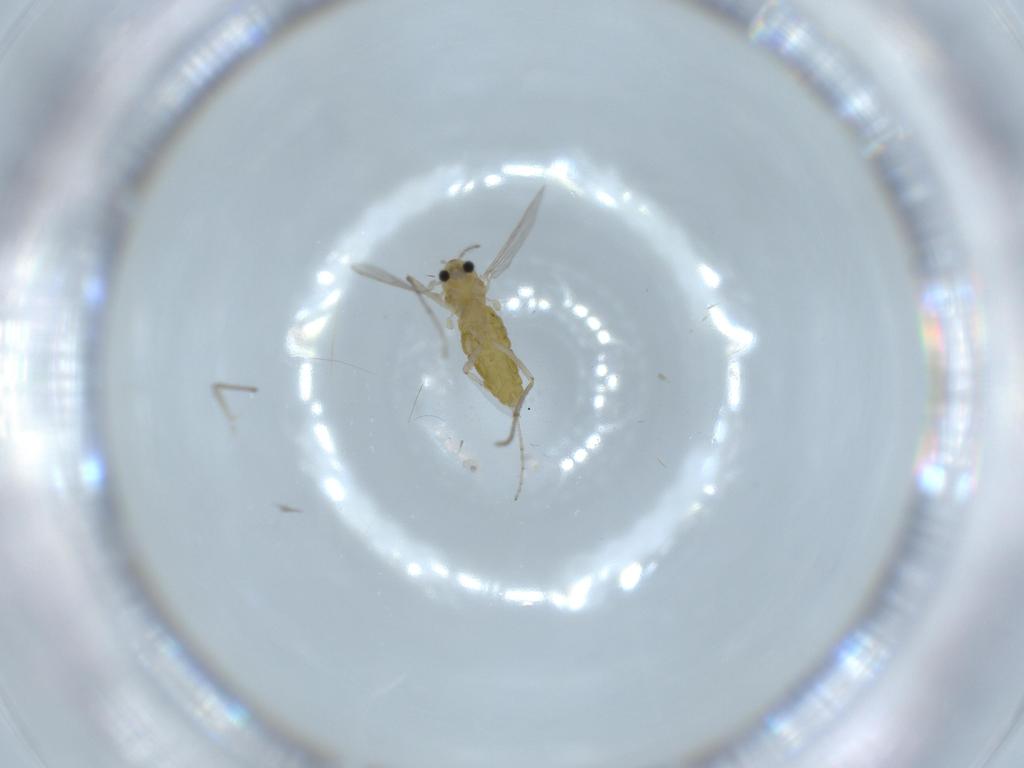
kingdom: Animalia
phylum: Arthropoda
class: Insecta
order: Diptera
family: Chironomidae
